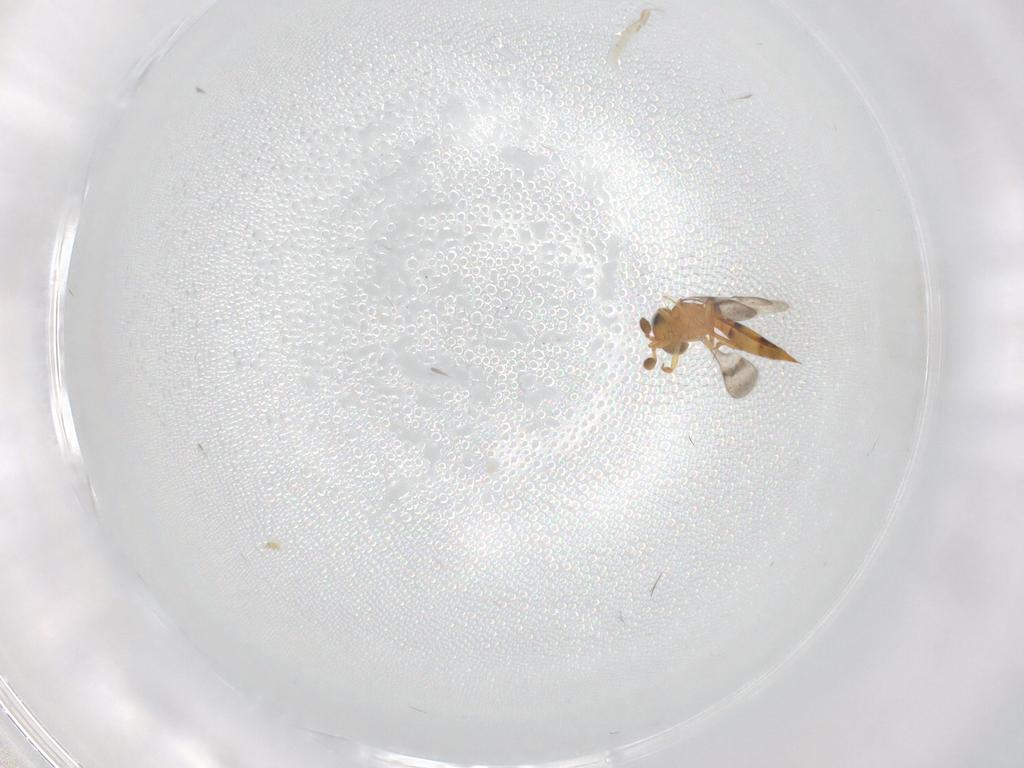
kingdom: Animalia
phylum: Arthropoda
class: Insecta
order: Hymenoptera
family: Scelionidae
